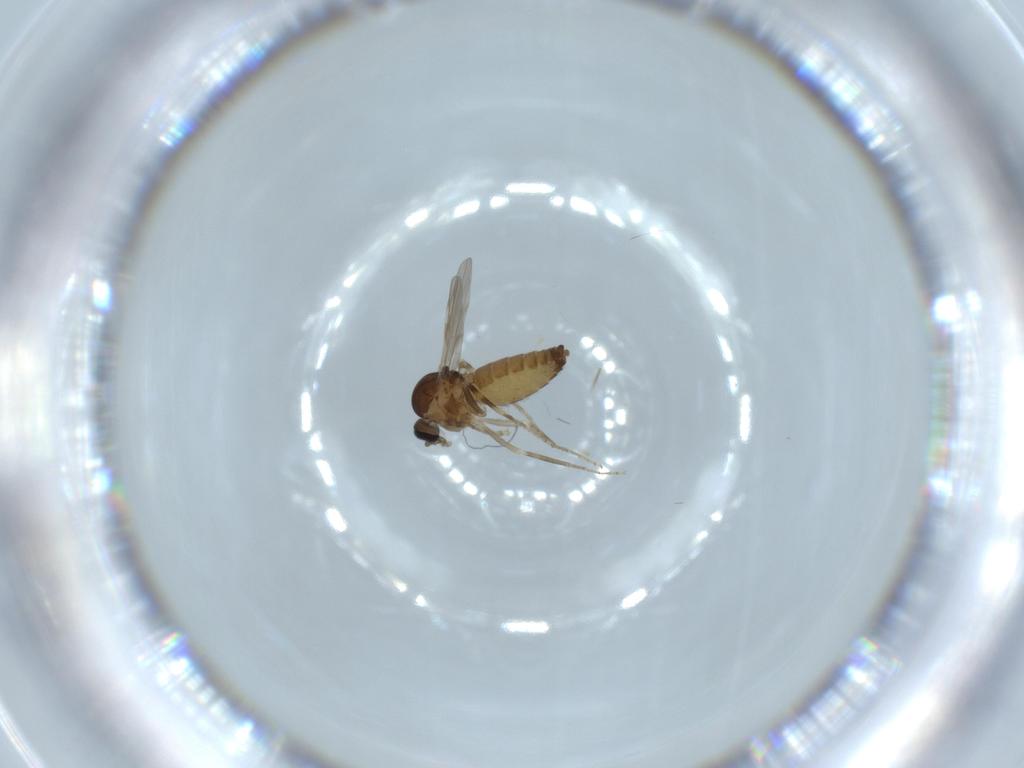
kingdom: Animalia
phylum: Arthropoda
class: Insecta
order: Diptera
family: Ceratopogonidae
